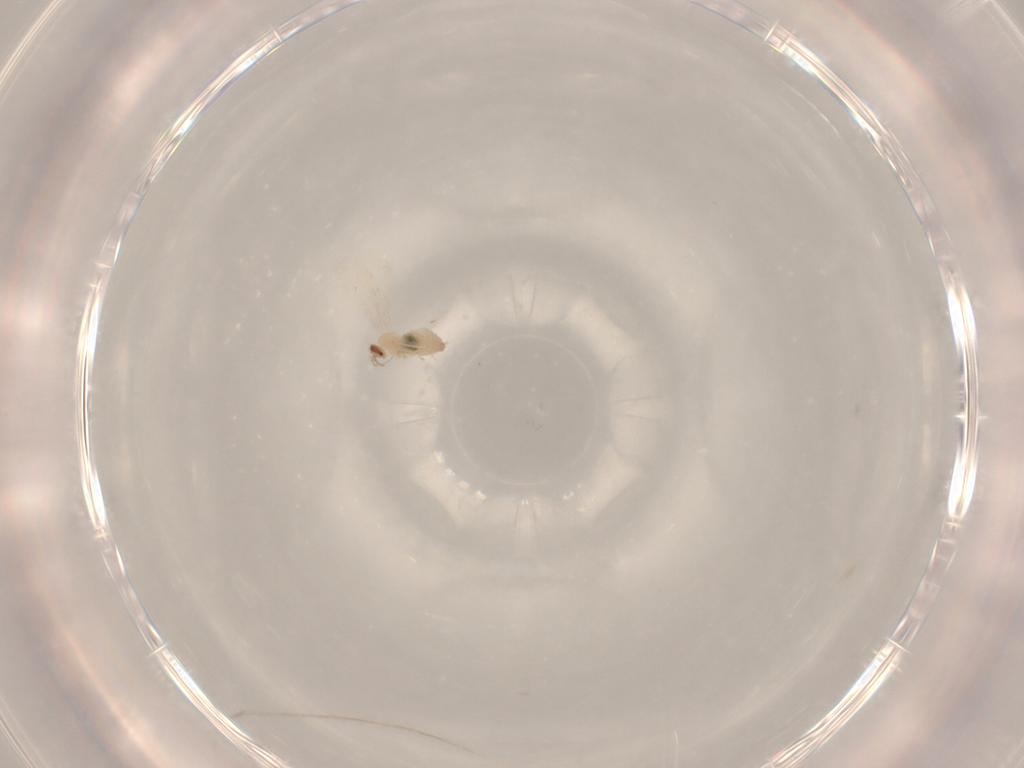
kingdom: Animalia
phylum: Arthropoda
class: Insecta
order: Diptera
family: Cecidomyiidae
